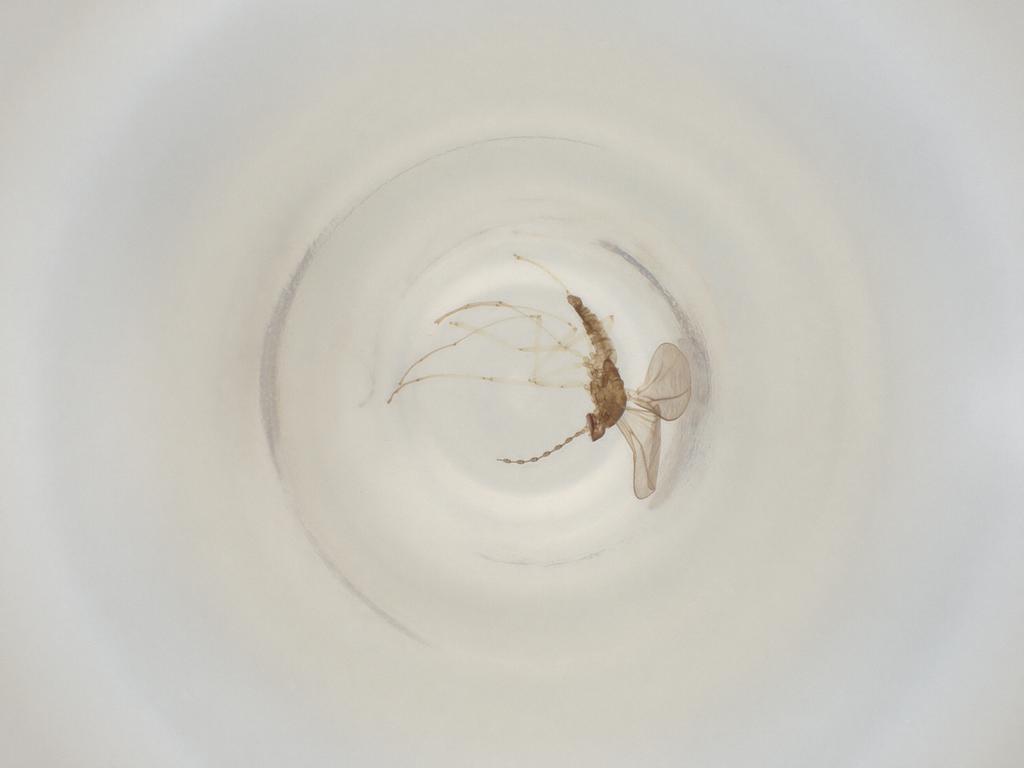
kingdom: Animalia
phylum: Arthropoda
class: Insecta
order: Diptera
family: Cecidomyiidae
